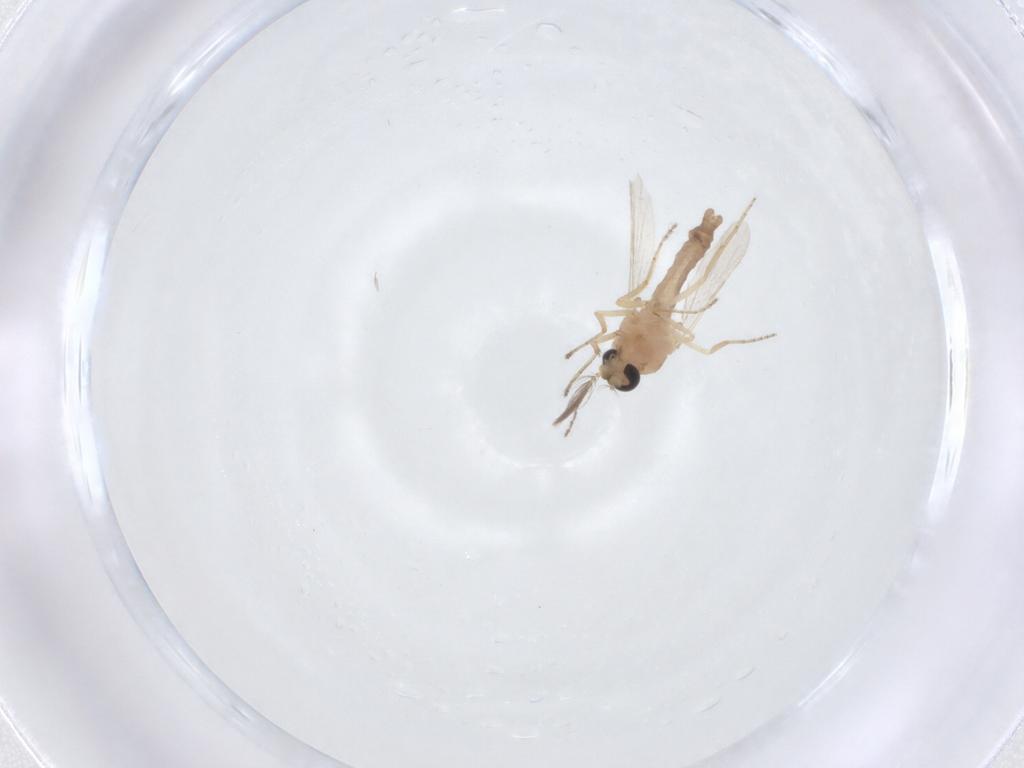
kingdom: Animalia
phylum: Arthropoda
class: Insecta
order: Diptera
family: Ceratopogonidae
